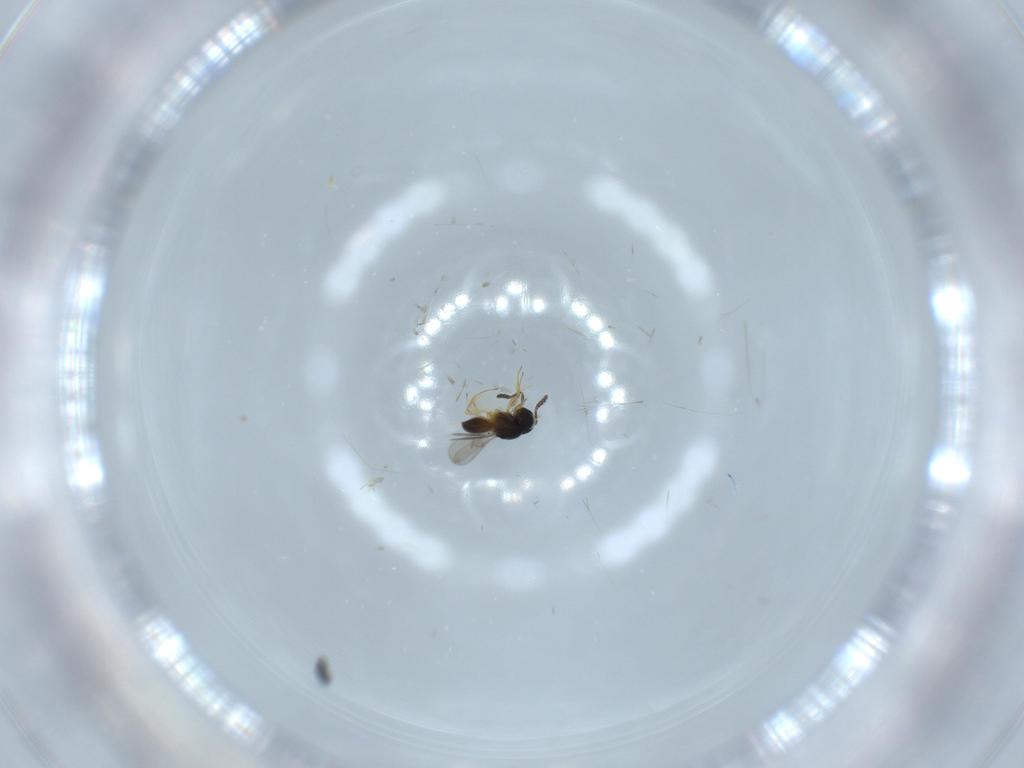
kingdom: Animalia
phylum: Arthropoda
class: Insecta
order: Hymenoptera
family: Scelionidae
